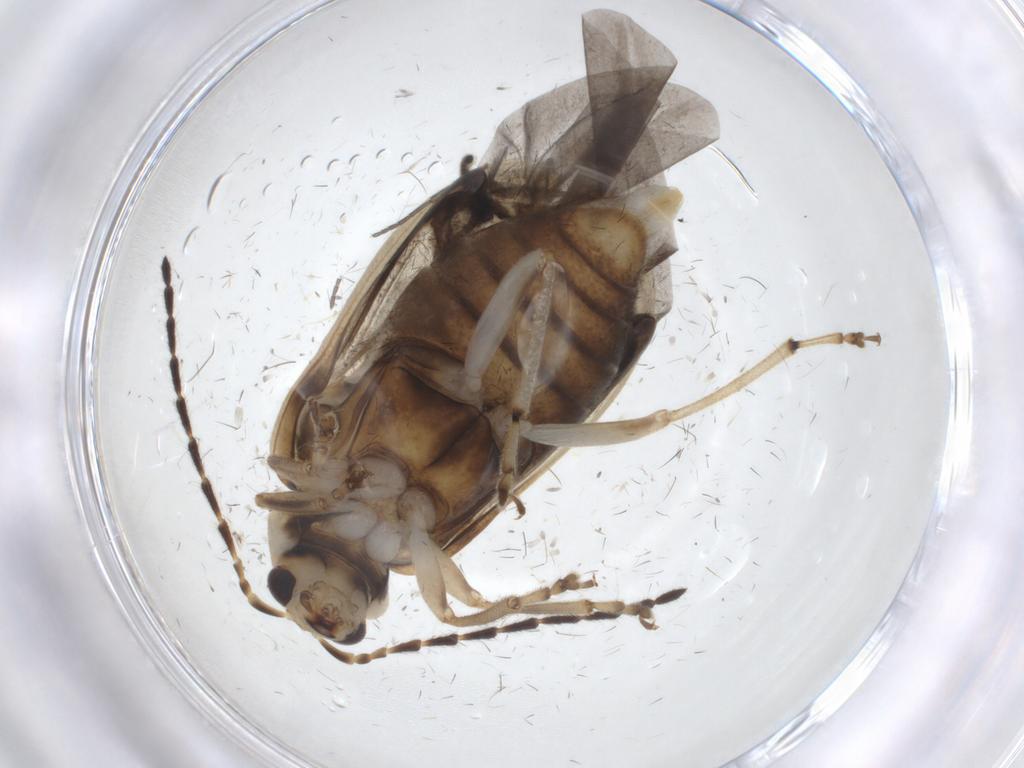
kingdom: Animalia
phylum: Arthropoda
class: Insecta
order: Coleoptera
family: Chrysomelidae
